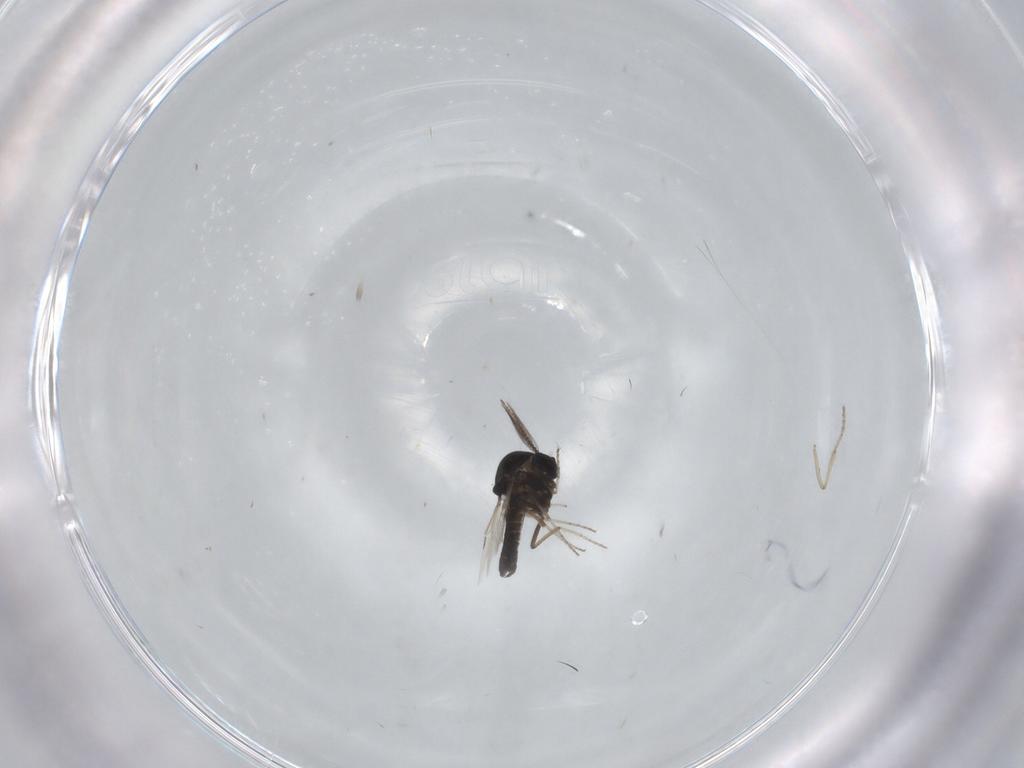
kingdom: Animalia
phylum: Arthropoda
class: Insecta
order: Diptera
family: Ceratopogonidae
